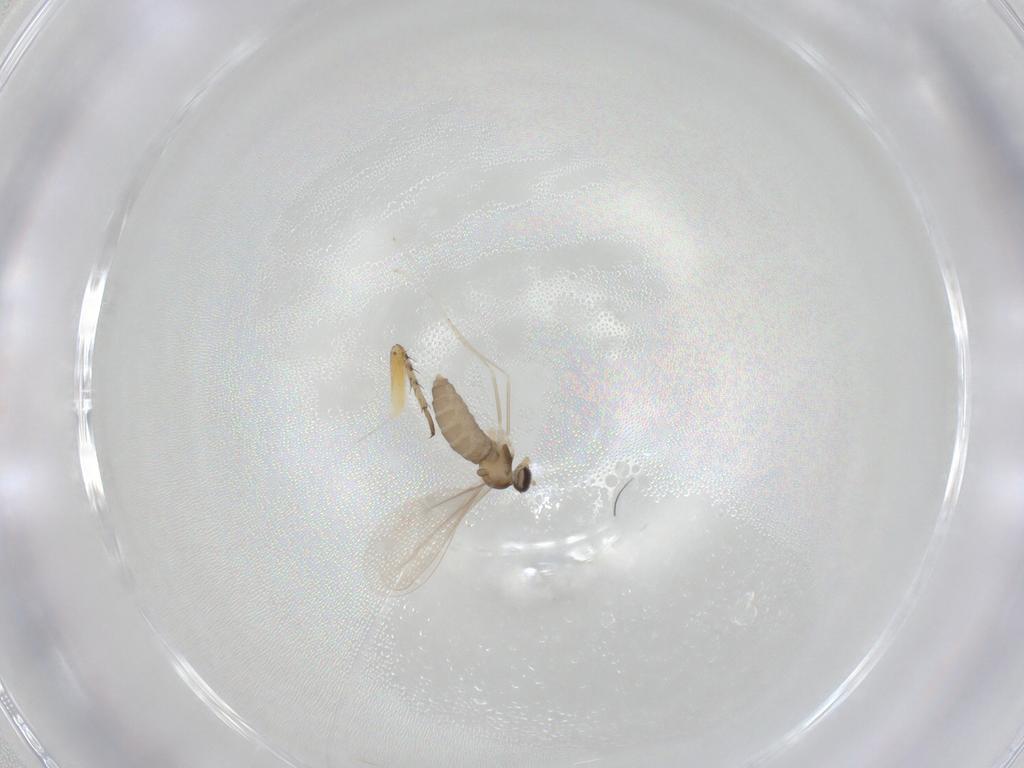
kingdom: Animalia
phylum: Arthropoda
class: Insecta
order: Diptera
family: Cecidomyiidae
